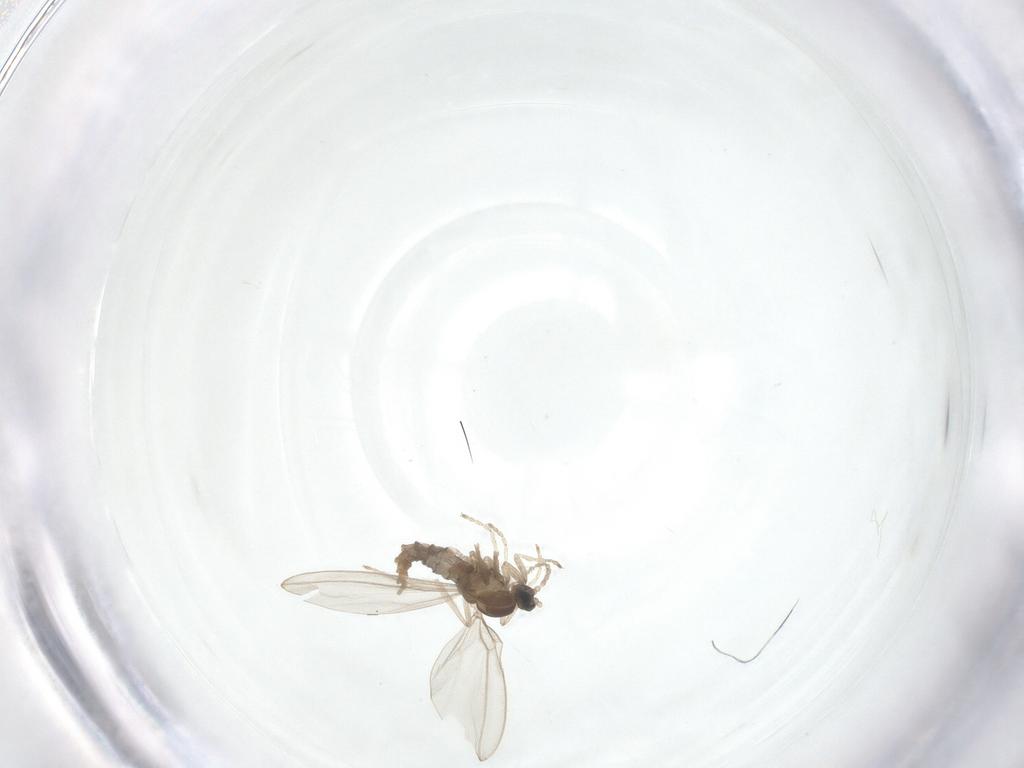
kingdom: Animalia
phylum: Arthropoda
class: Insecta
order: Diptera
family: Cecidomyiidae
